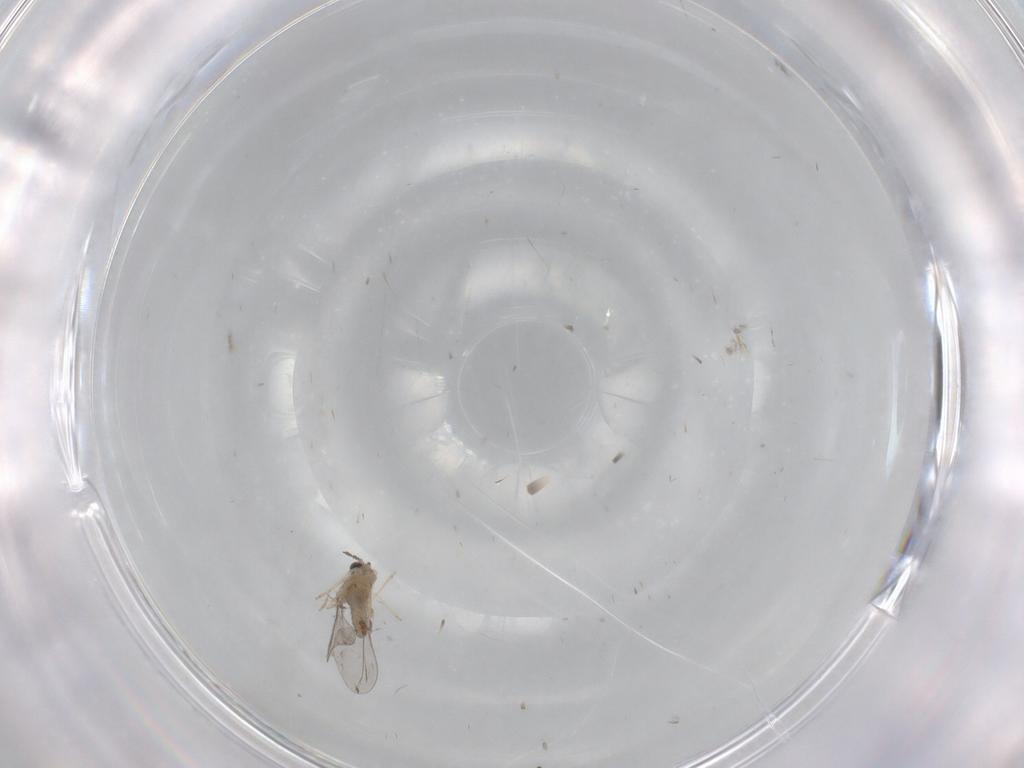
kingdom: Animalia
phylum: Arthropoda
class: Insecta
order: Diptera
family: Cecidomyiidae
